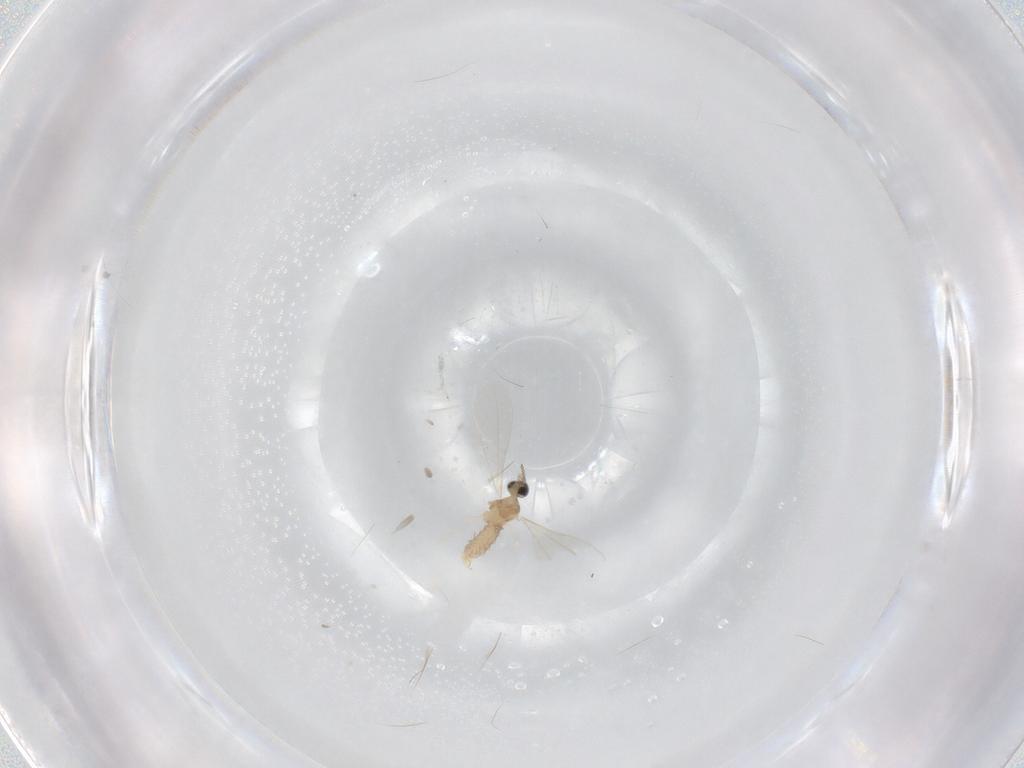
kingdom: Animalia
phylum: Arthropoda
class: Insecta
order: Diptera
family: Cecidomyiidae
